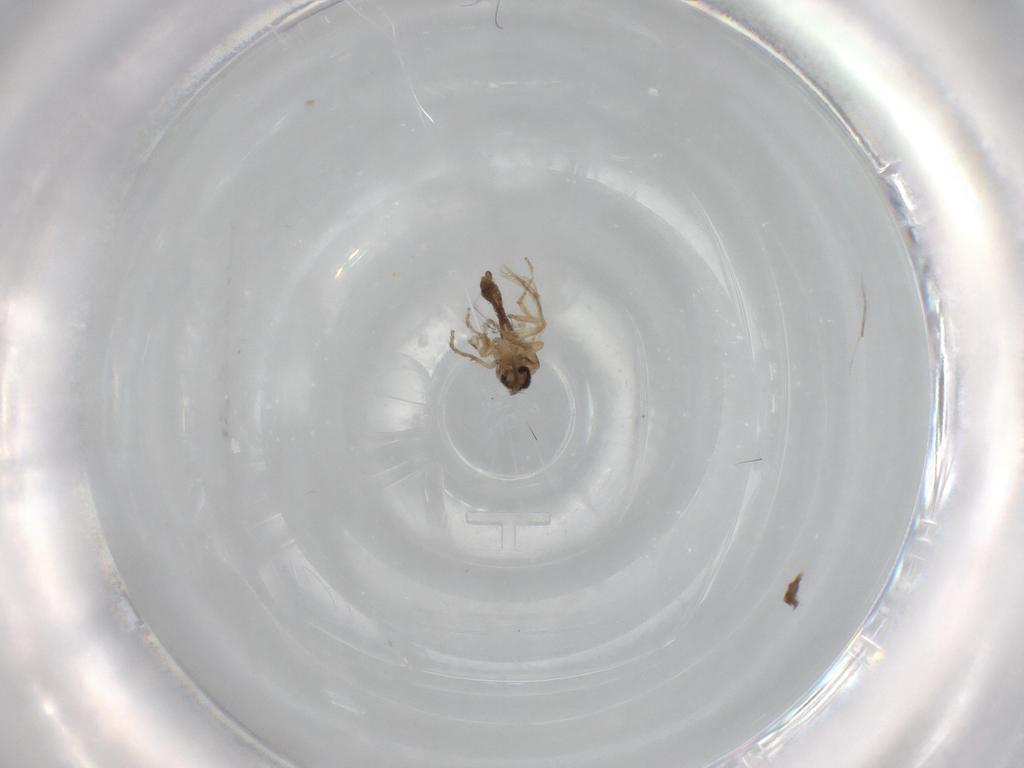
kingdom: Animalia
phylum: Arthropoda
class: Insecta
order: Diptera
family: Ceratopogonidae
